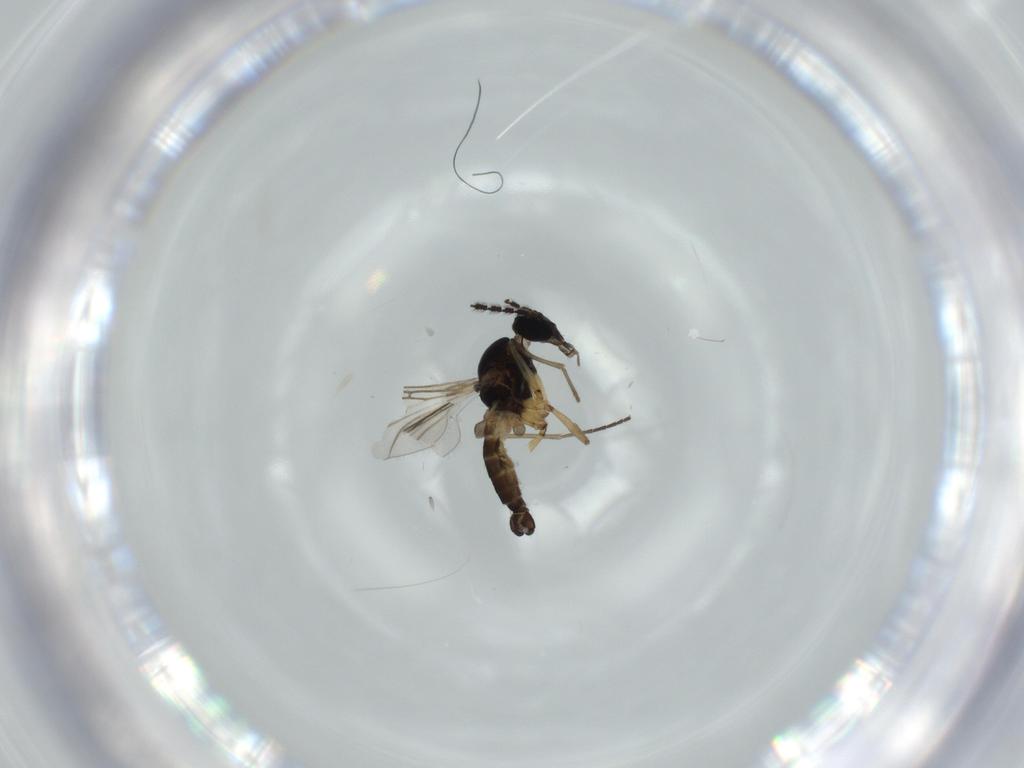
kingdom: Animalia
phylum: Arthropoda
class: Insecta
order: Diptera
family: Sciaridae
